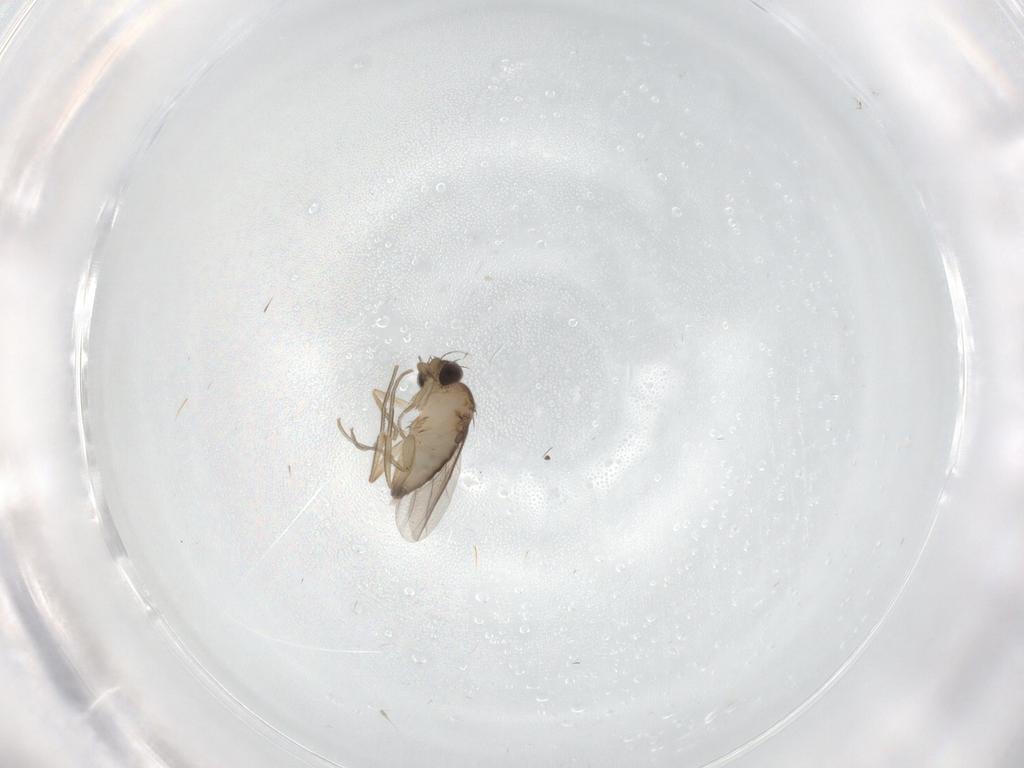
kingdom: Animalia
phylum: Arthropoda
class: Insecta
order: Diptera
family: Phoridae
